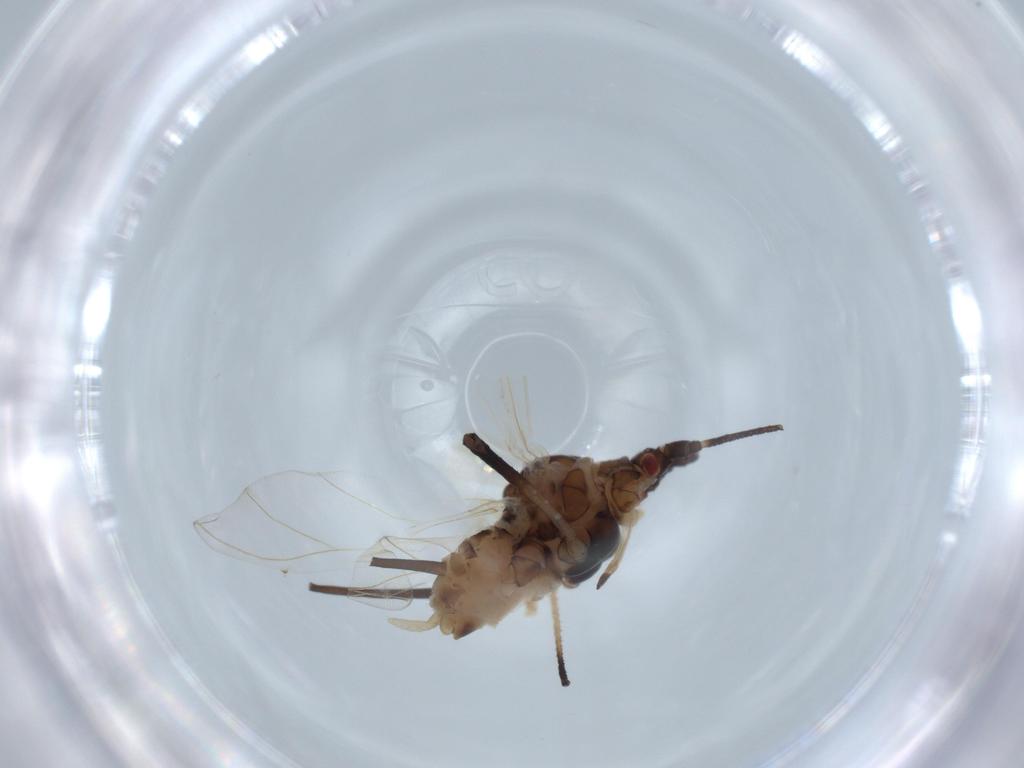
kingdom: Animalia
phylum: Arthropoda
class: Insecta
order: Hemiptera
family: Aphididae
